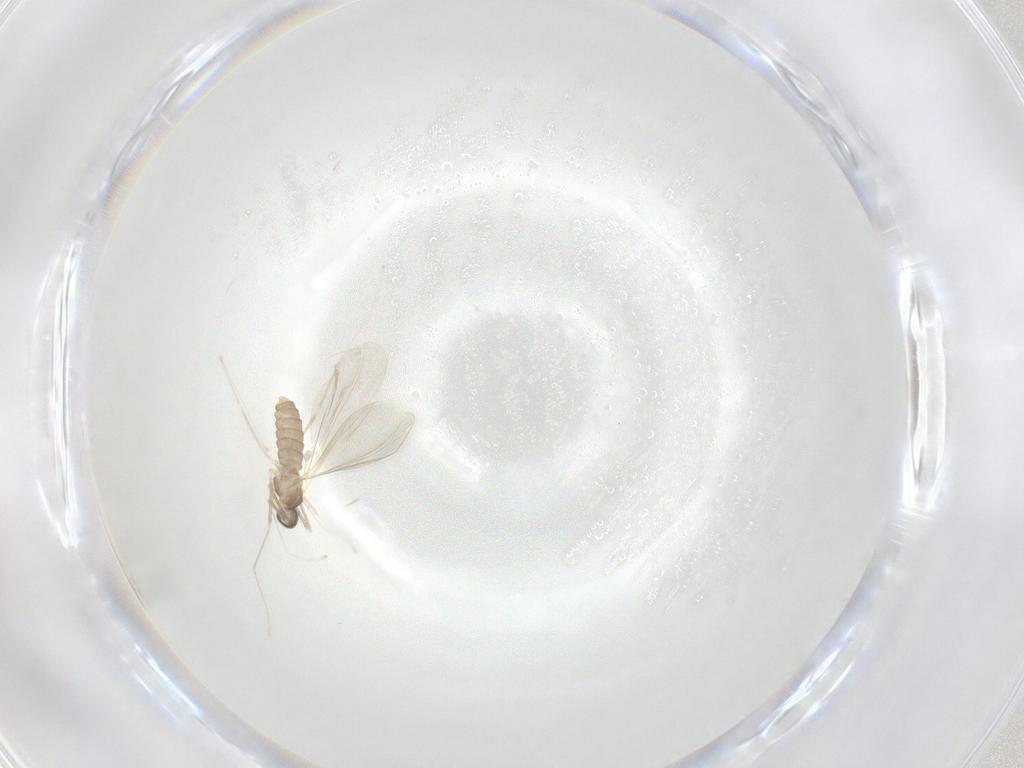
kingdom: Animalia
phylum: Arthropoda
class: Insecta
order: Diptera
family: Cecidomyiidae
